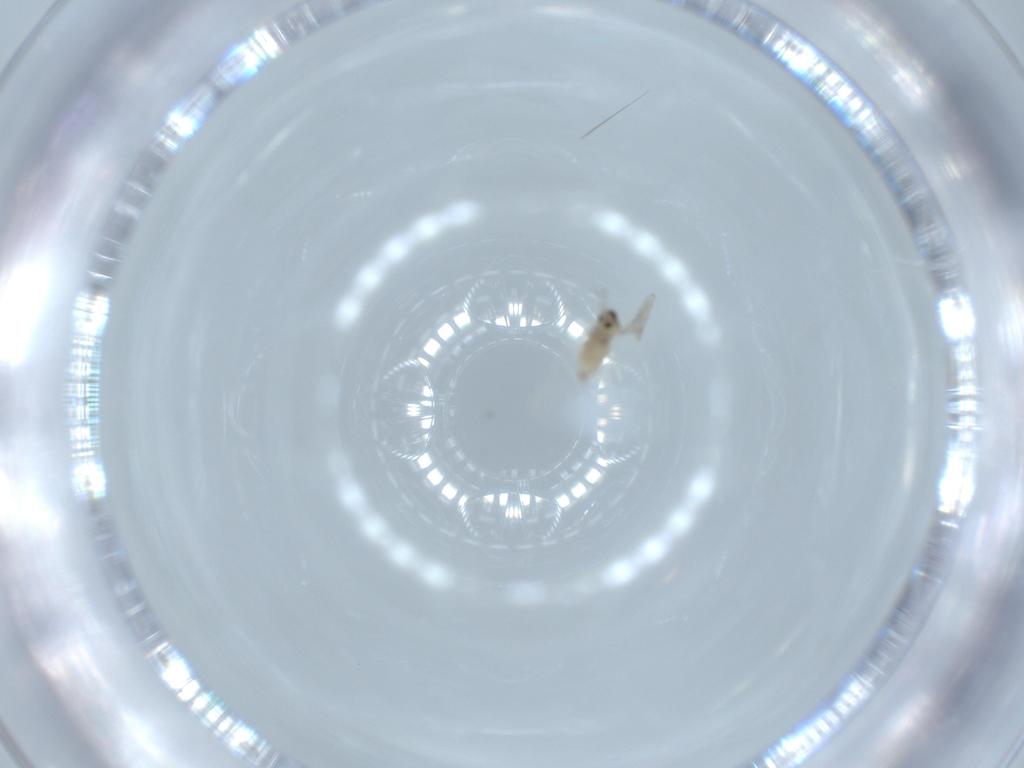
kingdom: Animalia
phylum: Arthropoda
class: Insecta
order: Diptera
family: Cecidomyiidae
